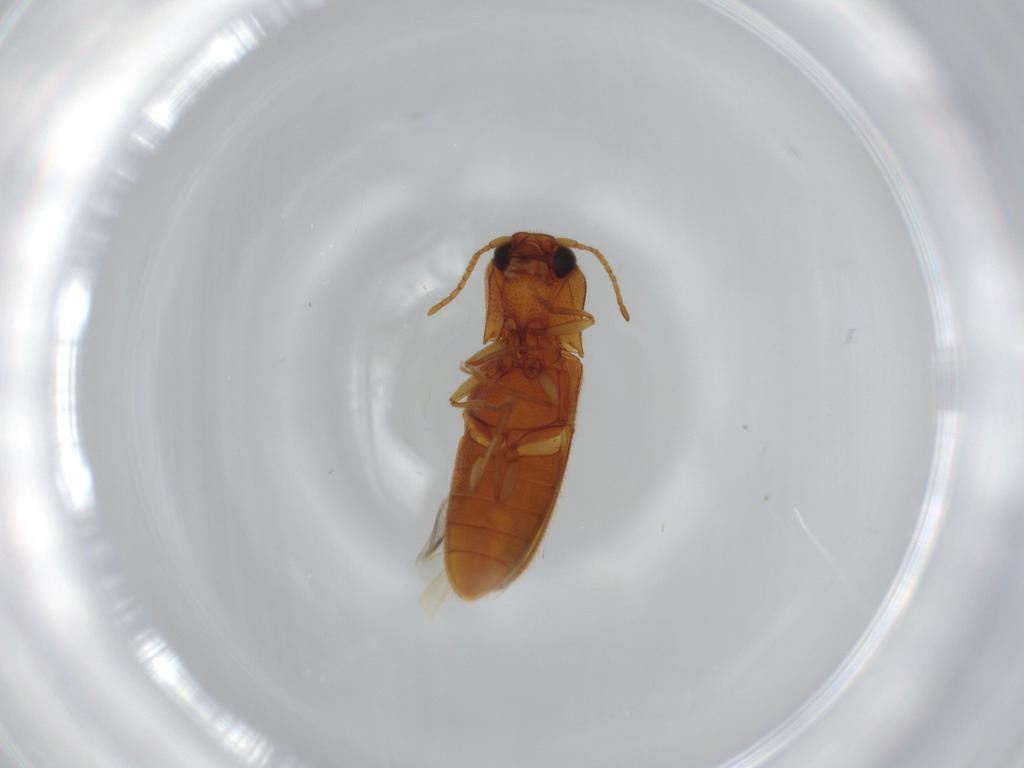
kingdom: Animalia
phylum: Arthropoda
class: Insecta
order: Coleoptera
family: Elateridae
